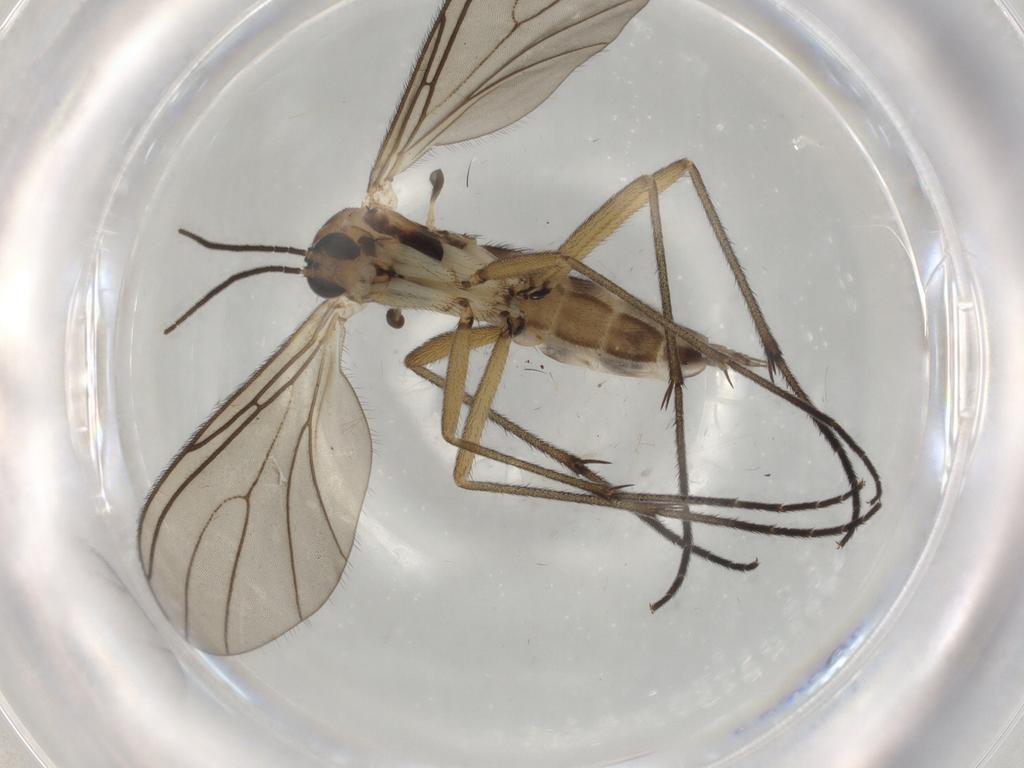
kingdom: Animalia
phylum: Arthropoda
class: Insecta
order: Diptera
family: Sciaridae
